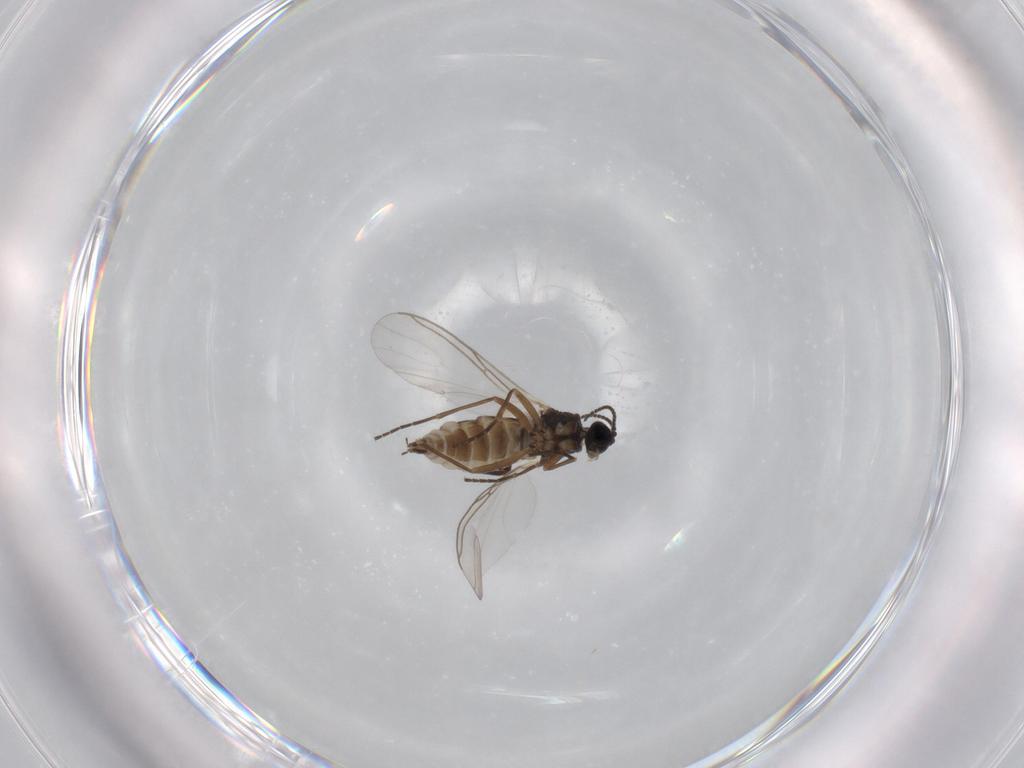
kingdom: Animalia
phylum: Arthropoda
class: Insecta
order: Diptera
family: Sciaridae
